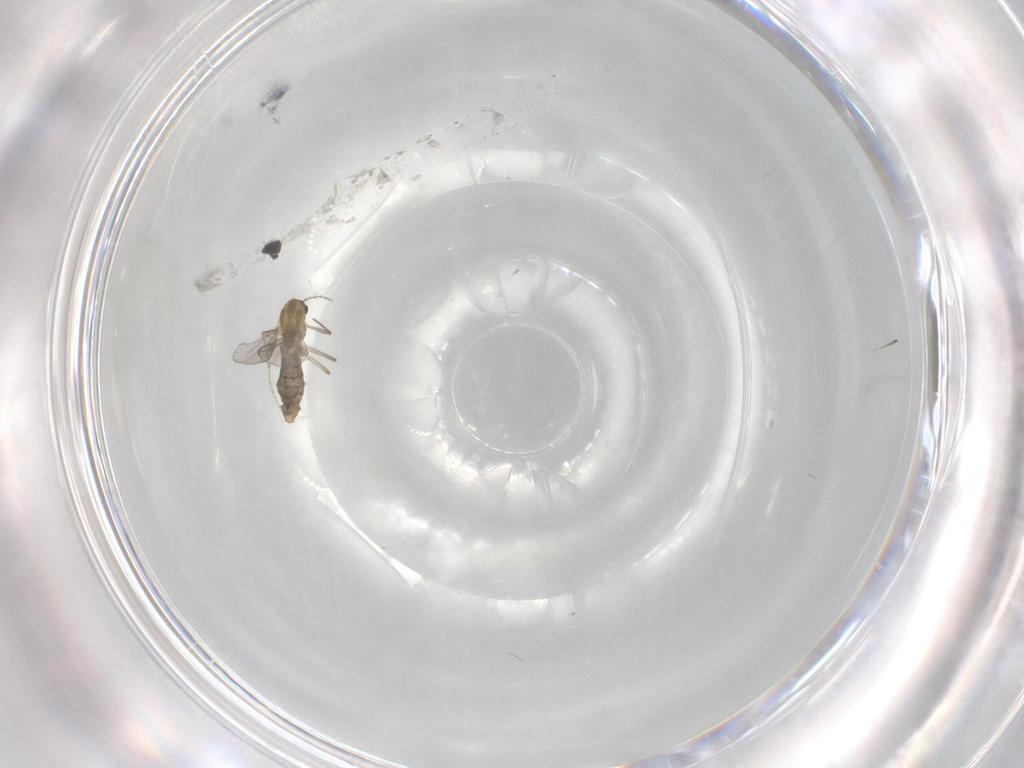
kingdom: Animalia
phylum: Arthropoda
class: Insecta
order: Diptera
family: Chironomidae
